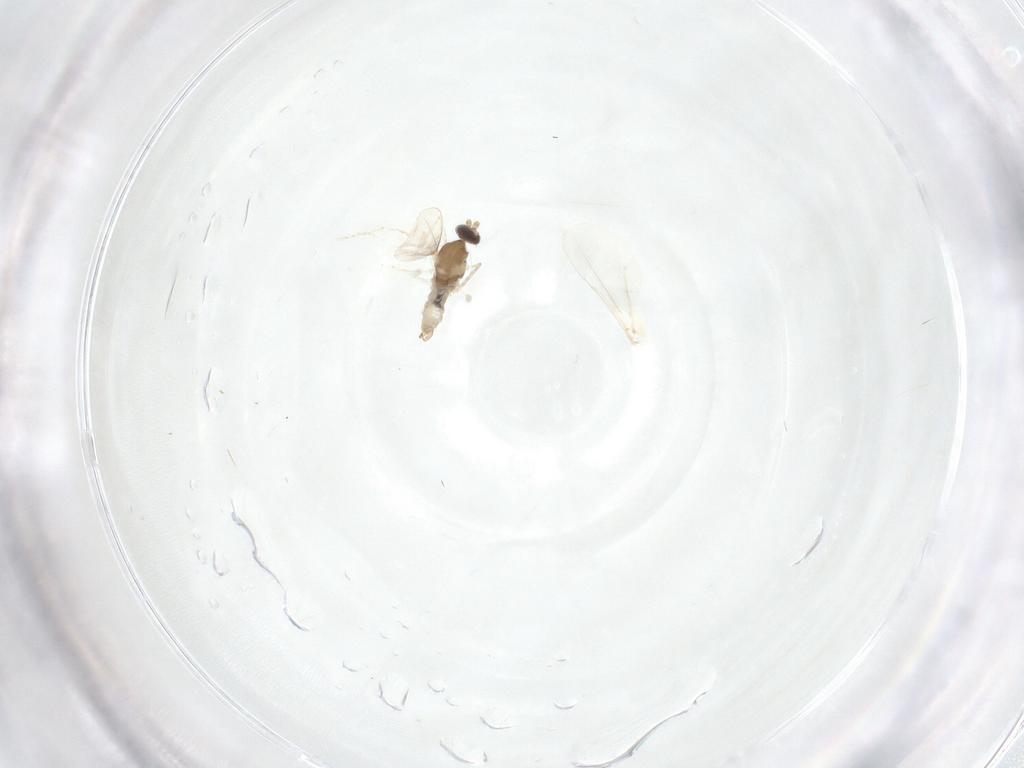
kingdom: Animalia
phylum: Arthropoda
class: Insecta
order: Diptera
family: Cecidomyiidae
